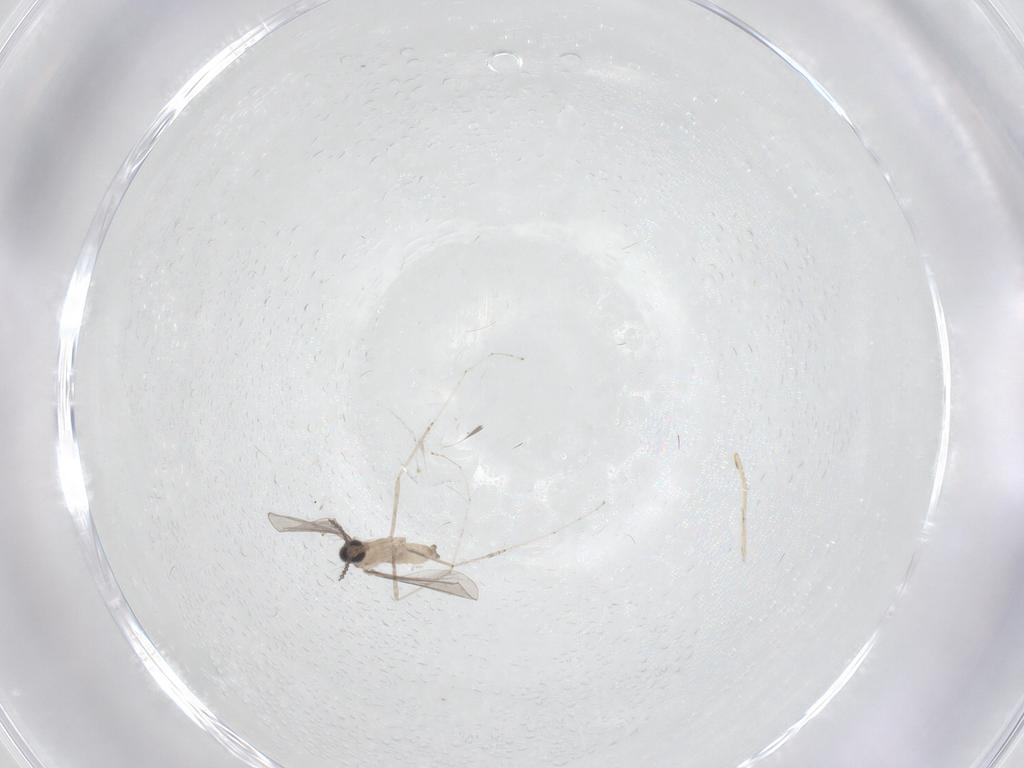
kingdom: Animalia
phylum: Arthropoda
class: Insecta
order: Diptera
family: Cecidomyiidae
